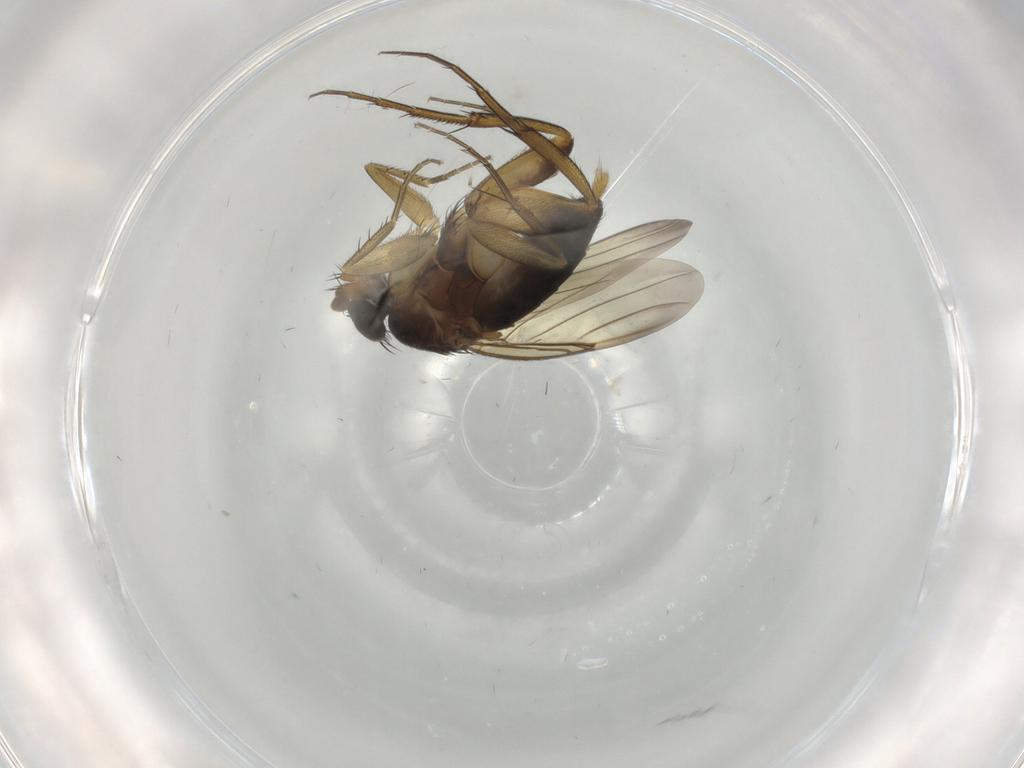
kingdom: Animalia
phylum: Arthropoda
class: Insecta
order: Diptera
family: Phoridae
